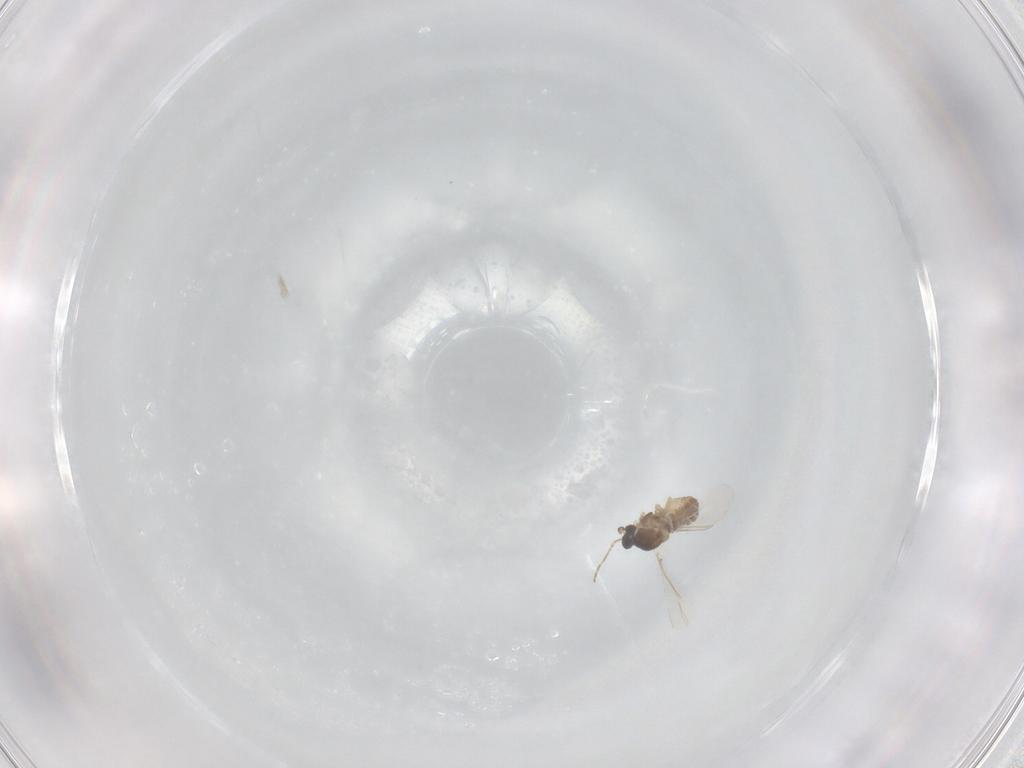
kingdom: Animalia
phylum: Arthropoda
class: Insecta
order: Diptera
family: Cecidomyiidae
